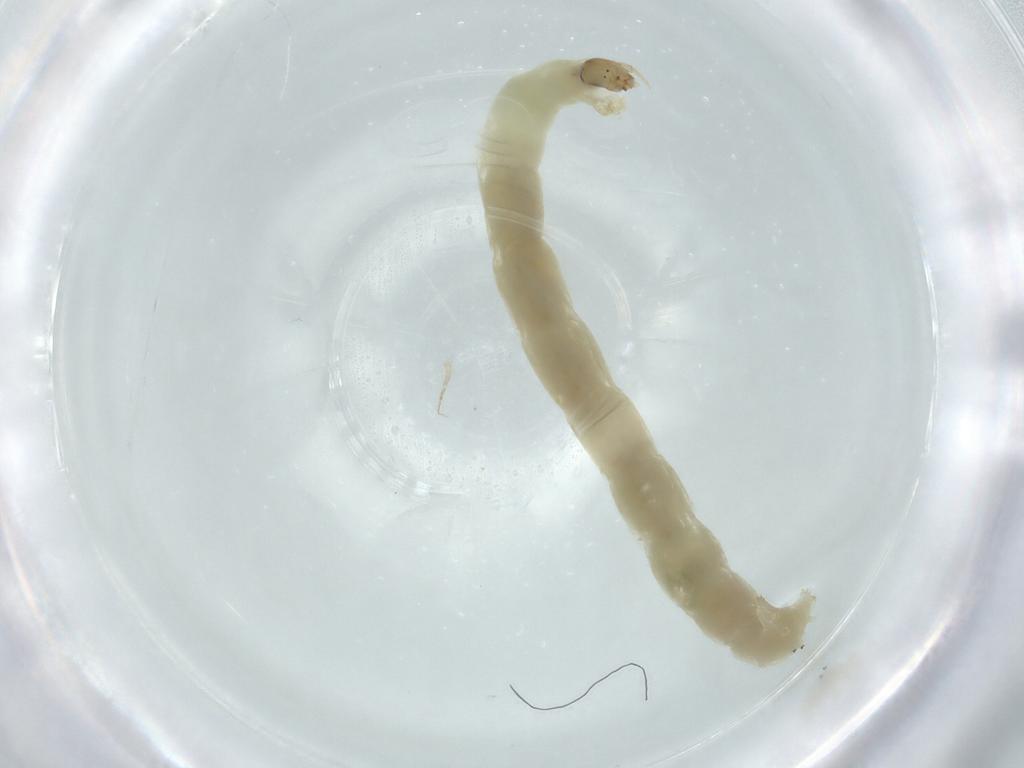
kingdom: Animalia
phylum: Arthropoda
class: Insecta
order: Diptera
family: Chironomidae
